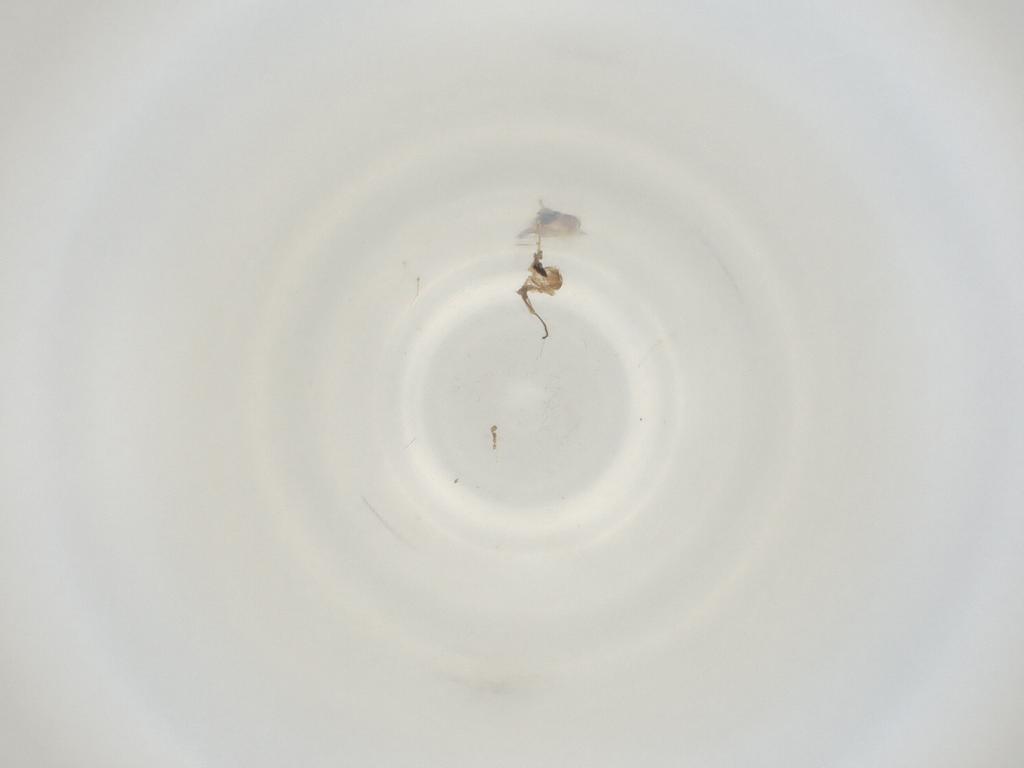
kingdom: Animalia
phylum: Arthropoda
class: Insecta
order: Diptera
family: Cecidomyiidae
